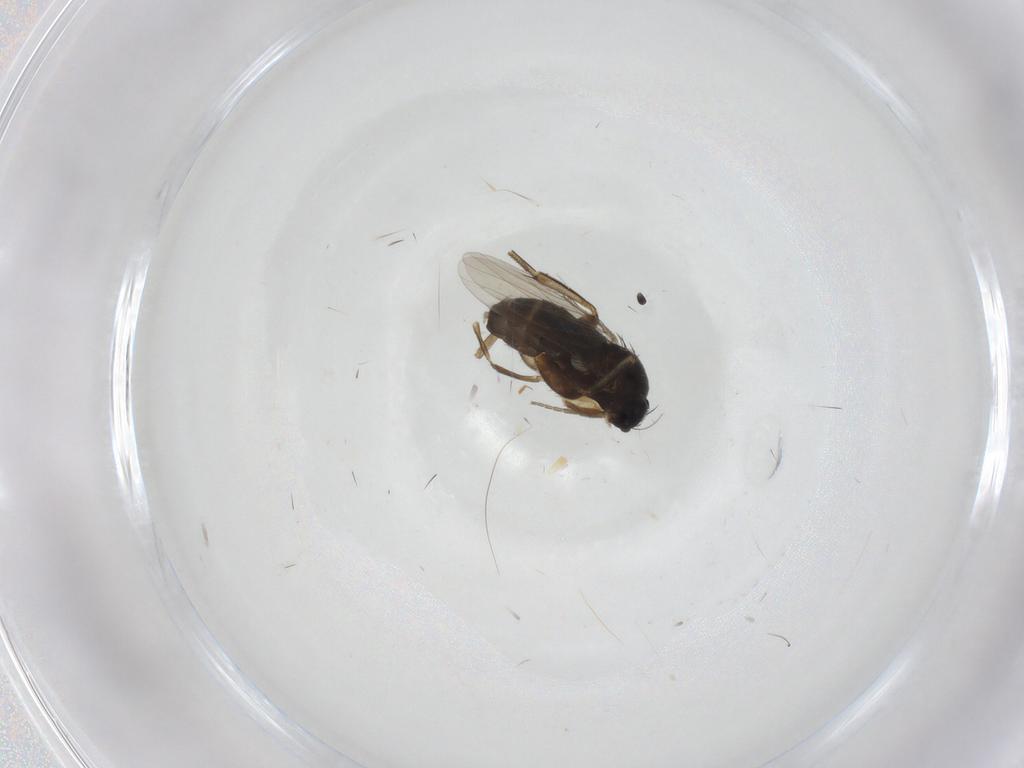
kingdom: Animalia
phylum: Arthropoda
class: Insecta
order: Diptera
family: Phoridae
